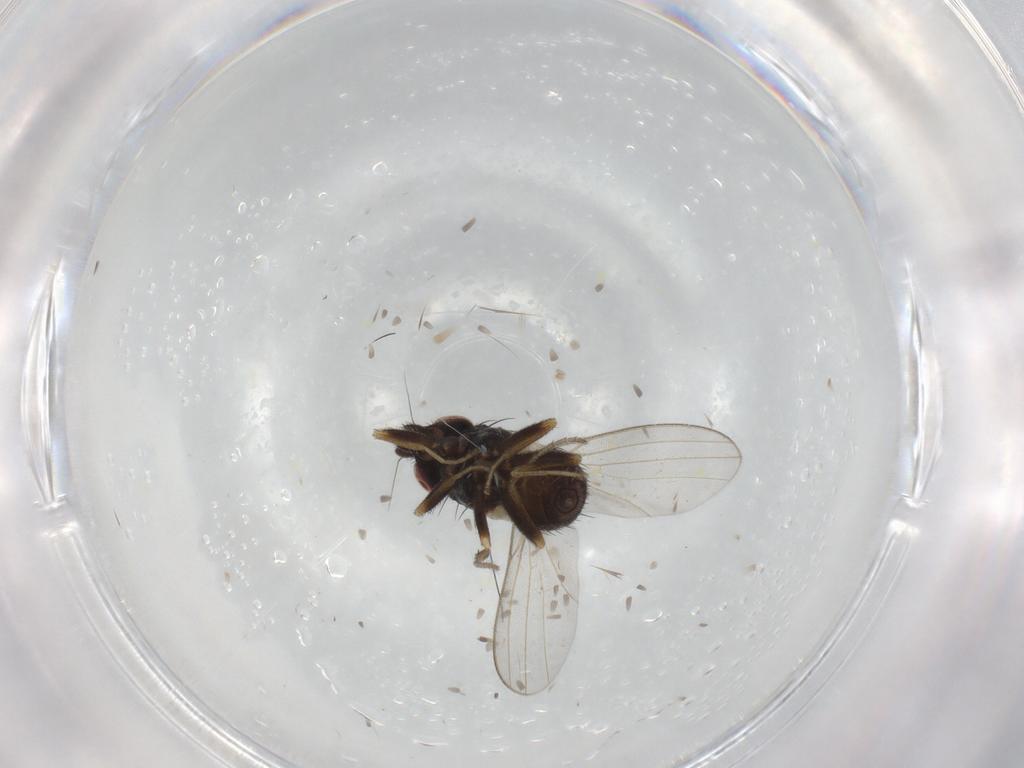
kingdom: Animalia
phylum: Arthropoda
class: Insecta
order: Diptera
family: Milichiidae
